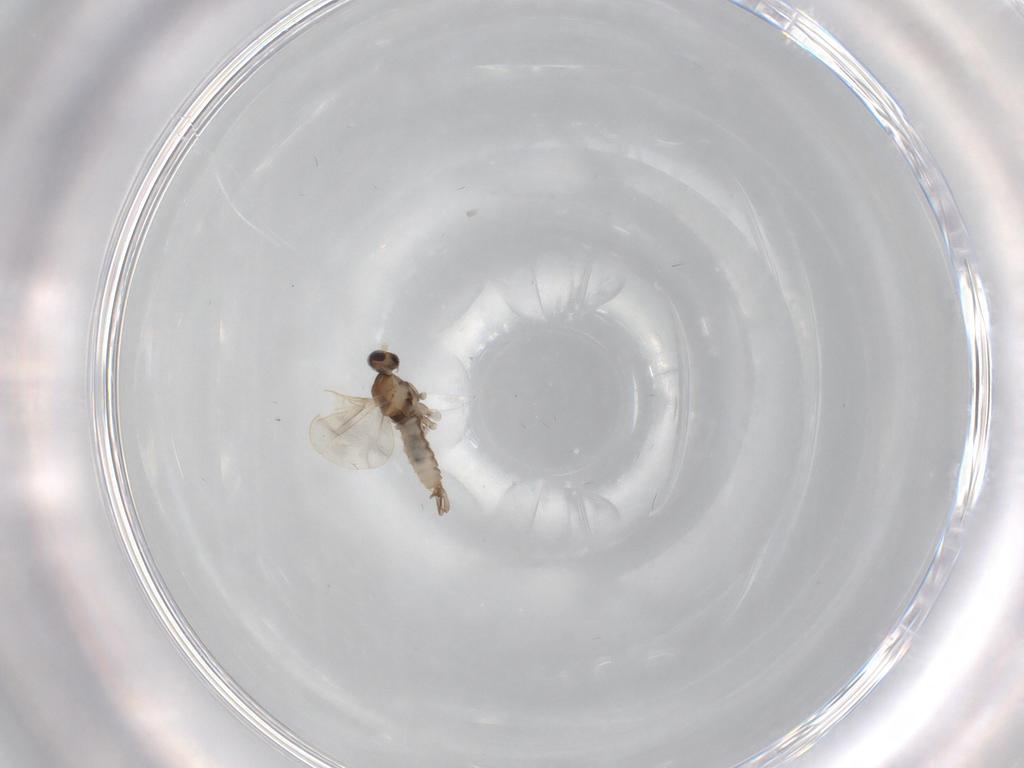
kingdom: Animalia
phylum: Arthropoda
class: Insecta
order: Diptera
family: Cecidomyiidae
